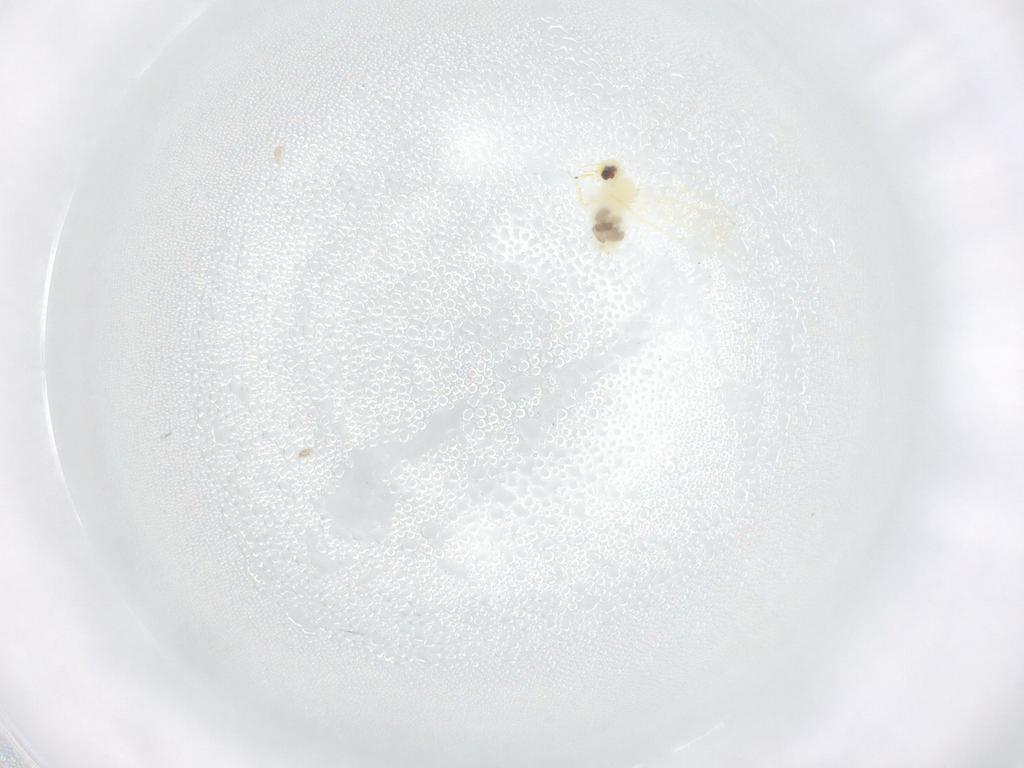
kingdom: Animalia
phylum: Arthropoda
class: Insecta
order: Hemiptera
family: Aleyrodidae
